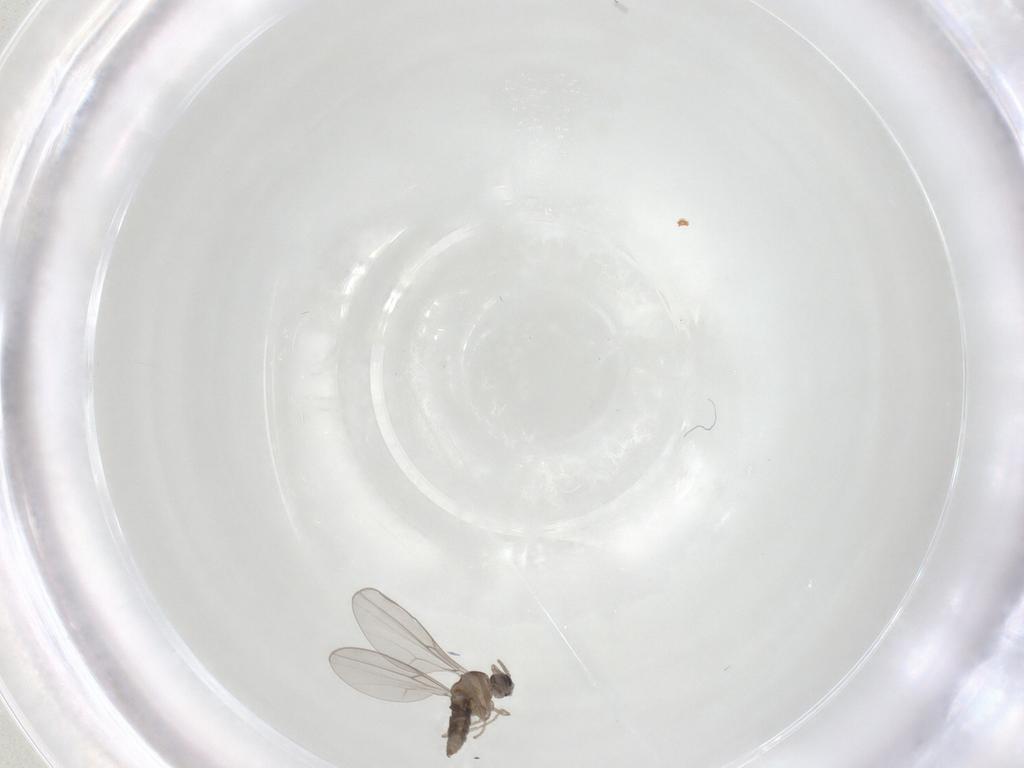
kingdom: Animalia
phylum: Arthropoda
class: Insecta
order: Diptera
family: Cecidomyiidae
